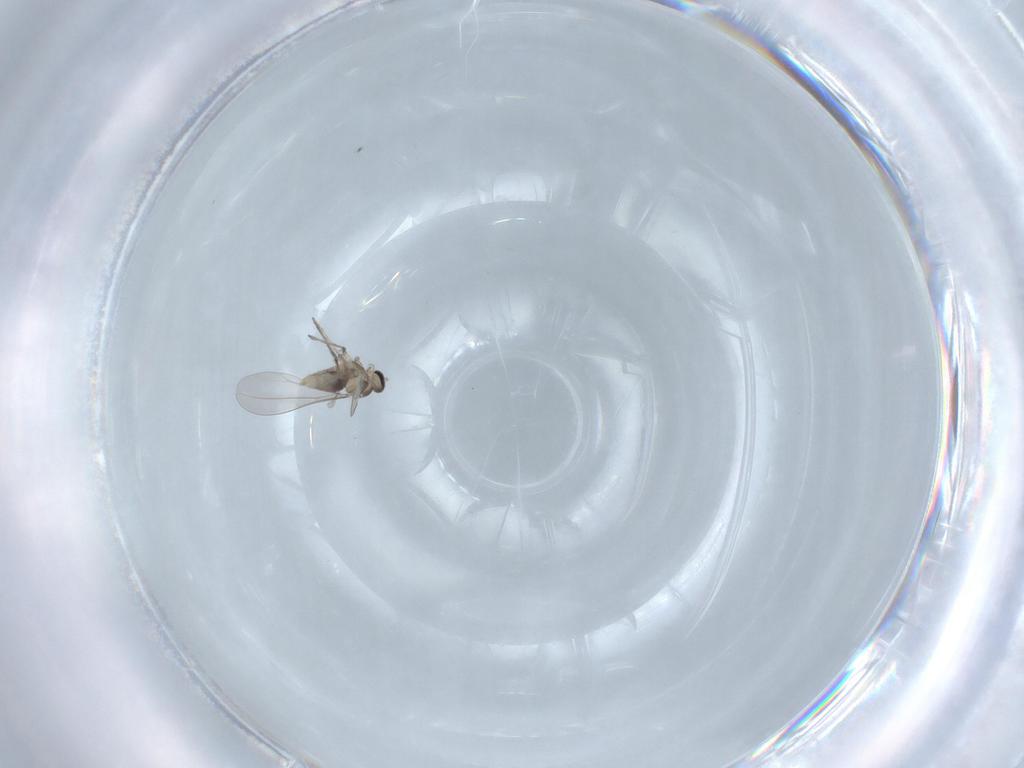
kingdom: Animalia
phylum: Arthropoda
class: Insecta
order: Diptera
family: Cecidomyiidae
